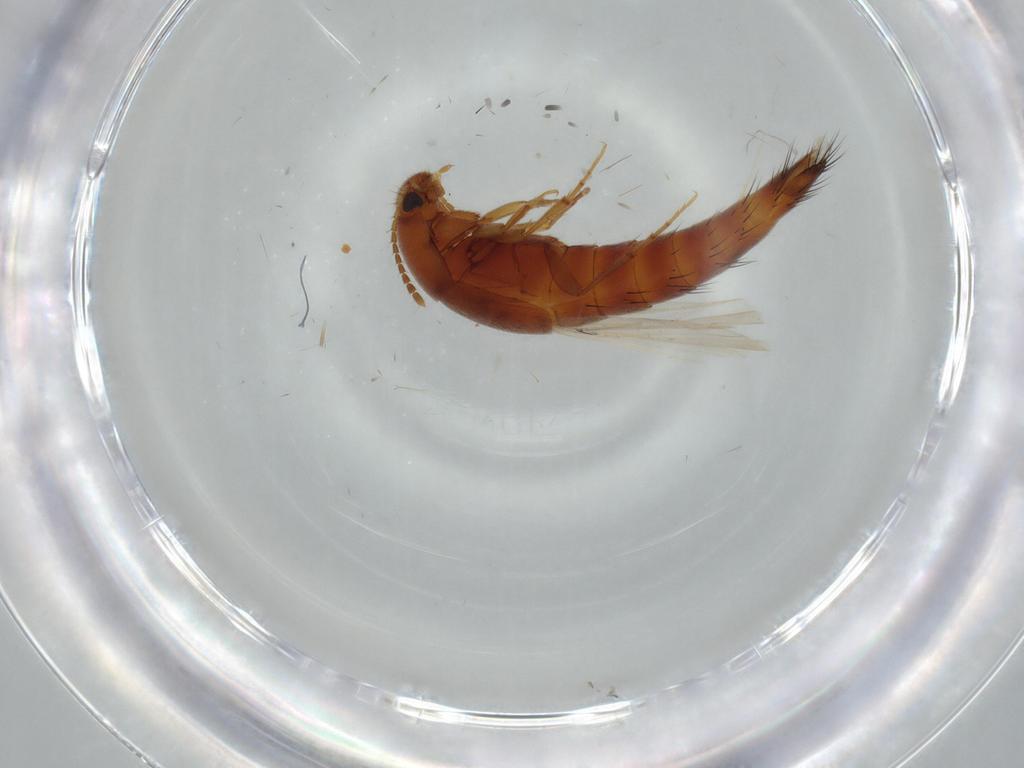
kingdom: Animalia
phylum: Arthropoda
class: Insecta
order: Coleoptera
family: Staphylinidae
